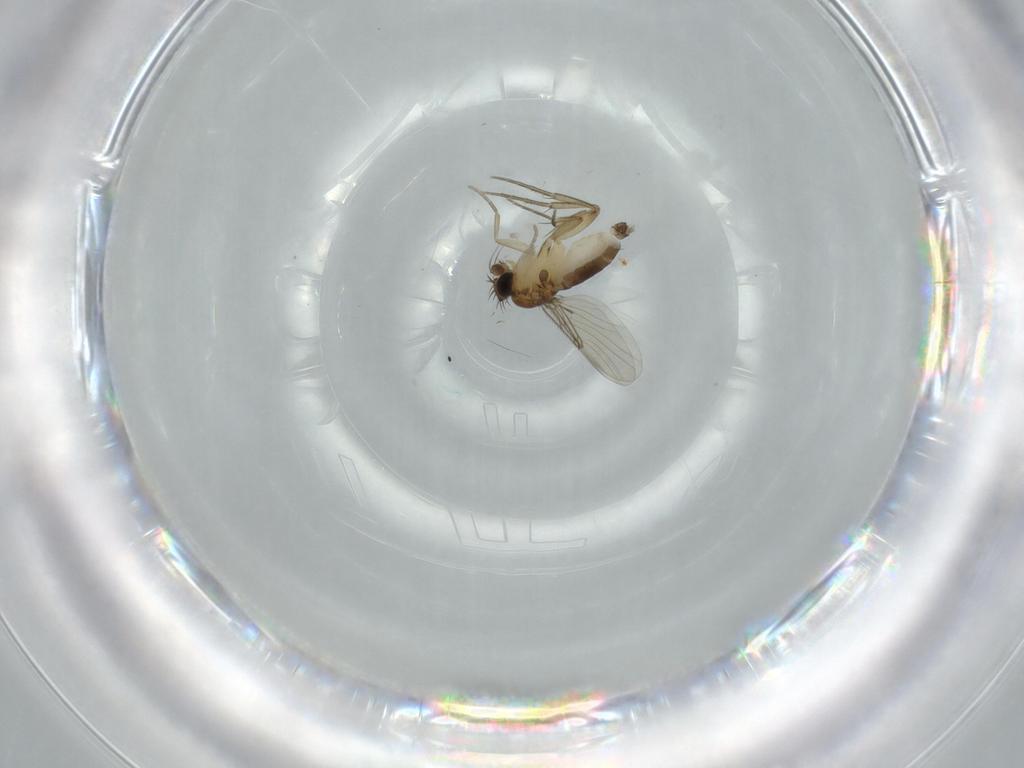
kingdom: Animalia
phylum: Arthropoda
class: Insecta
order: Diptera
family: Phoridae
